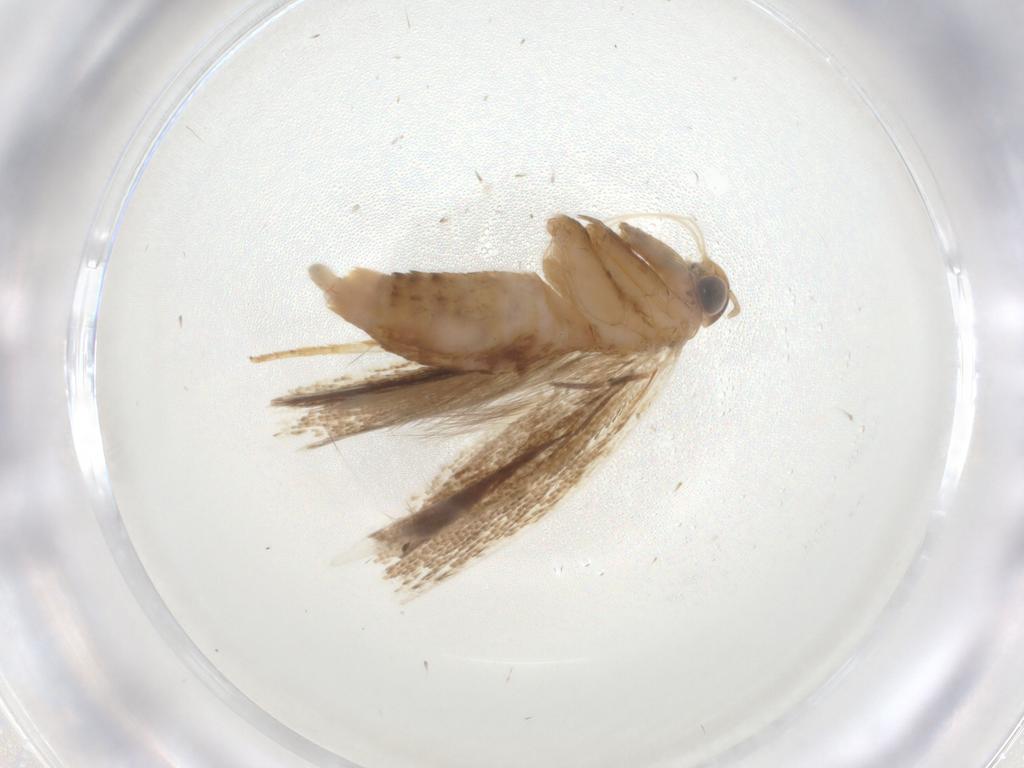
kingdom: Animalia
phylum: Arthropoda
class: Insecta
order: Lepidoptera
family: Gelechiidae
